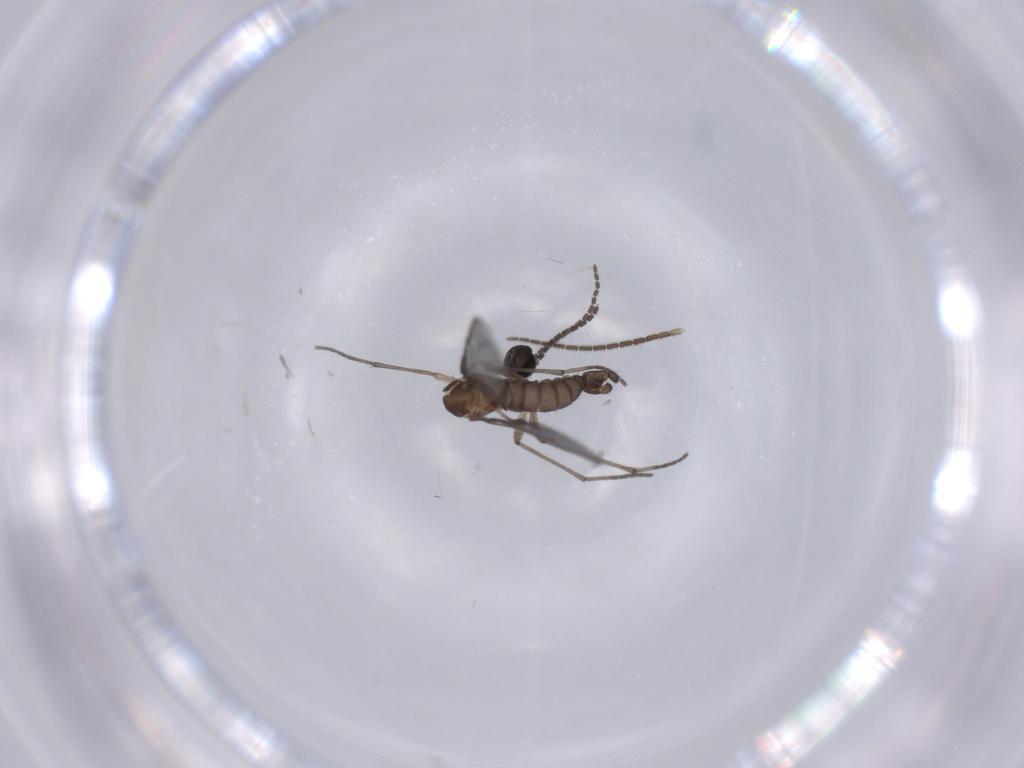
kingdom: Animalia
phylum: Arthropoda
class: Insecta
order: Diptera
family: Sciaridae
